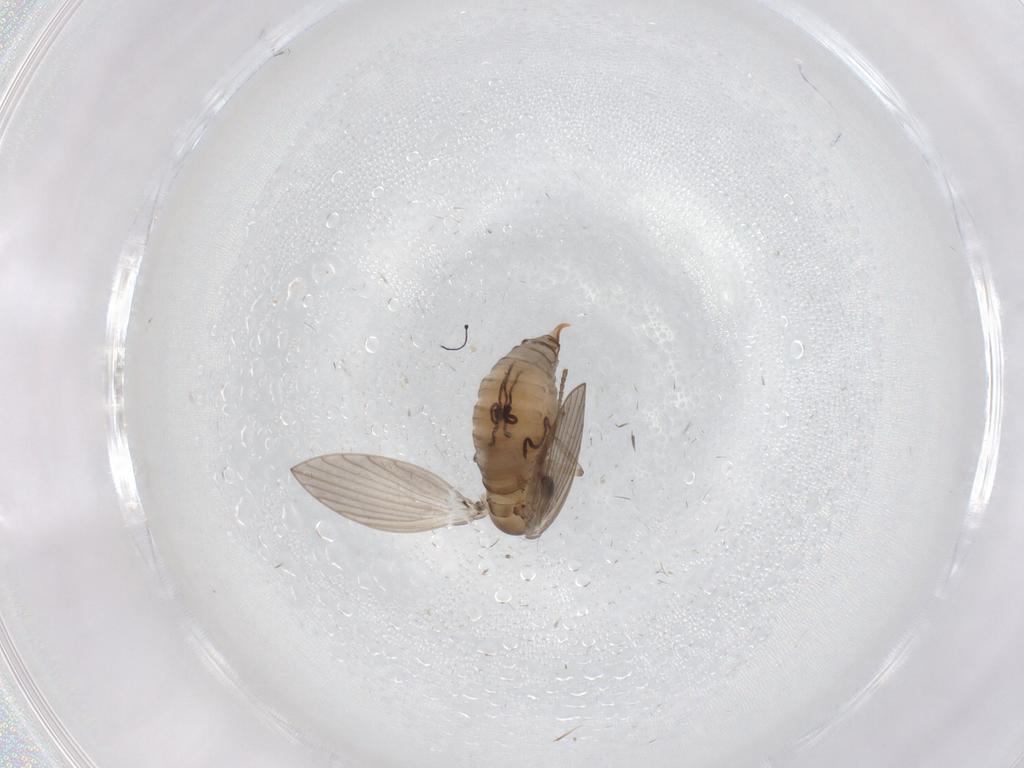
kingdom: Animalia
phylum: Arthropoda
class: Insecta
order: Diptera
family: Psychodidae
